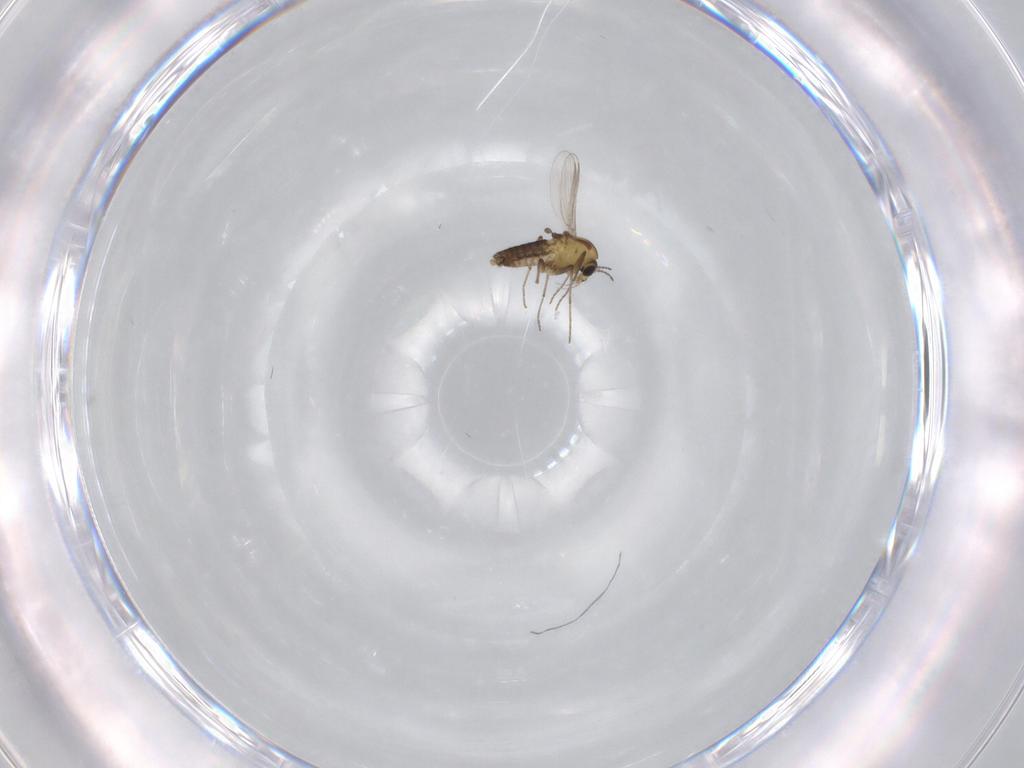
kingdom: Animalia
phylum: Arthropoda
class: Insecta
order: Diptera
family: Chironomidae
